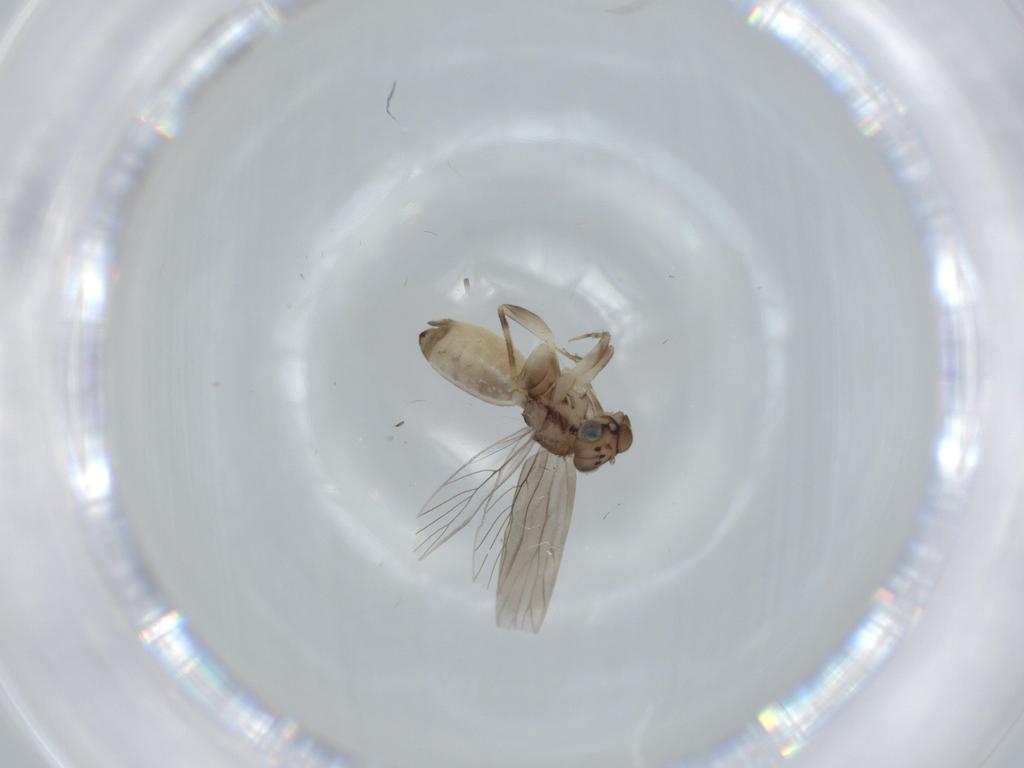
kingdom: Animalia
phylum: Arthropoda
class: Insecta
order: Psocodea
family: Lepidopsocidae
